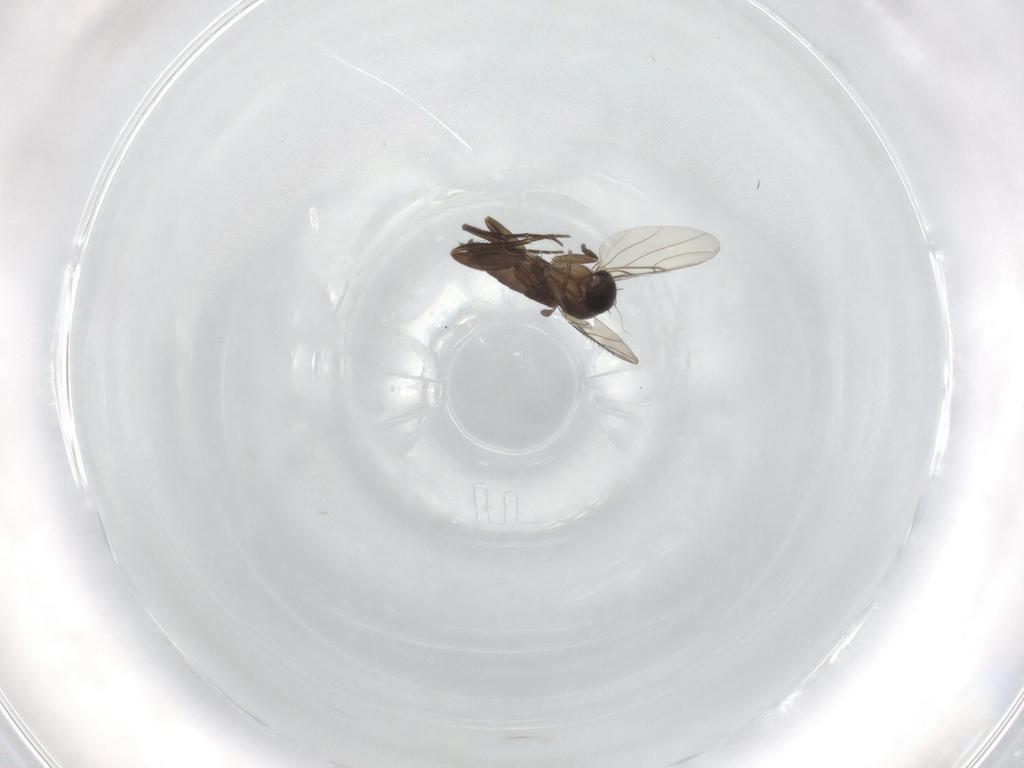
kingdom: Animalia
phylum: Arthropoda
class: Insecta
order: Diptera
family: Phoridae
